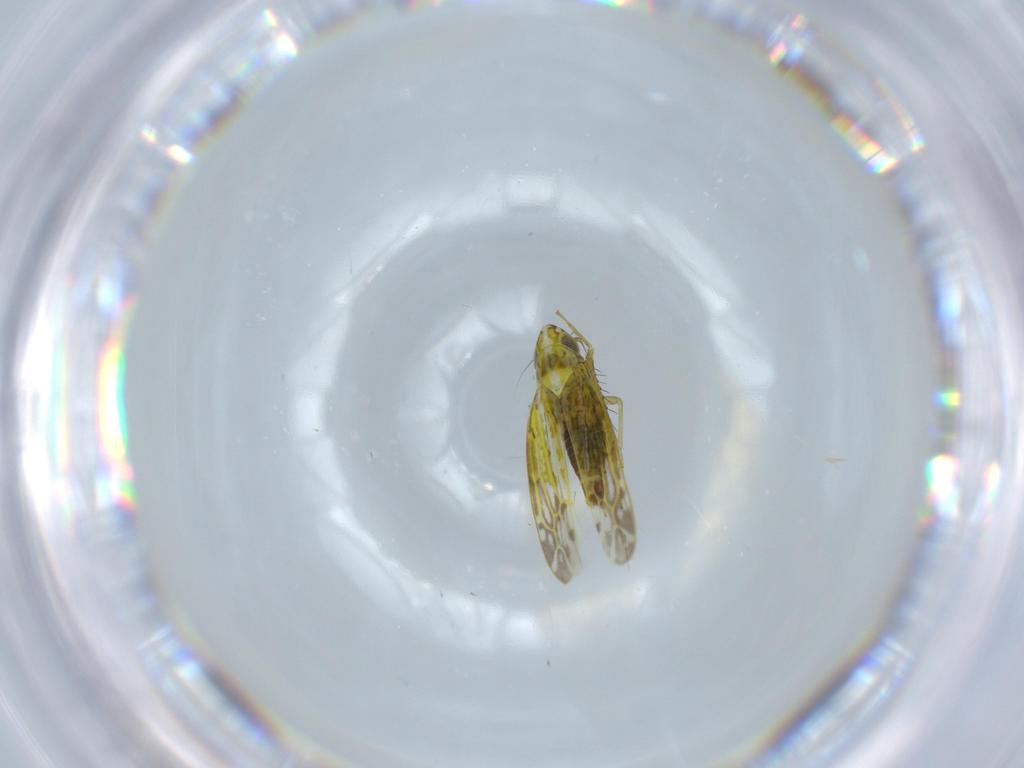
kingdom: Animalia
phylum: Arthropoda
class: Insecta
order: Hemiptera
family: Cicadellidae
